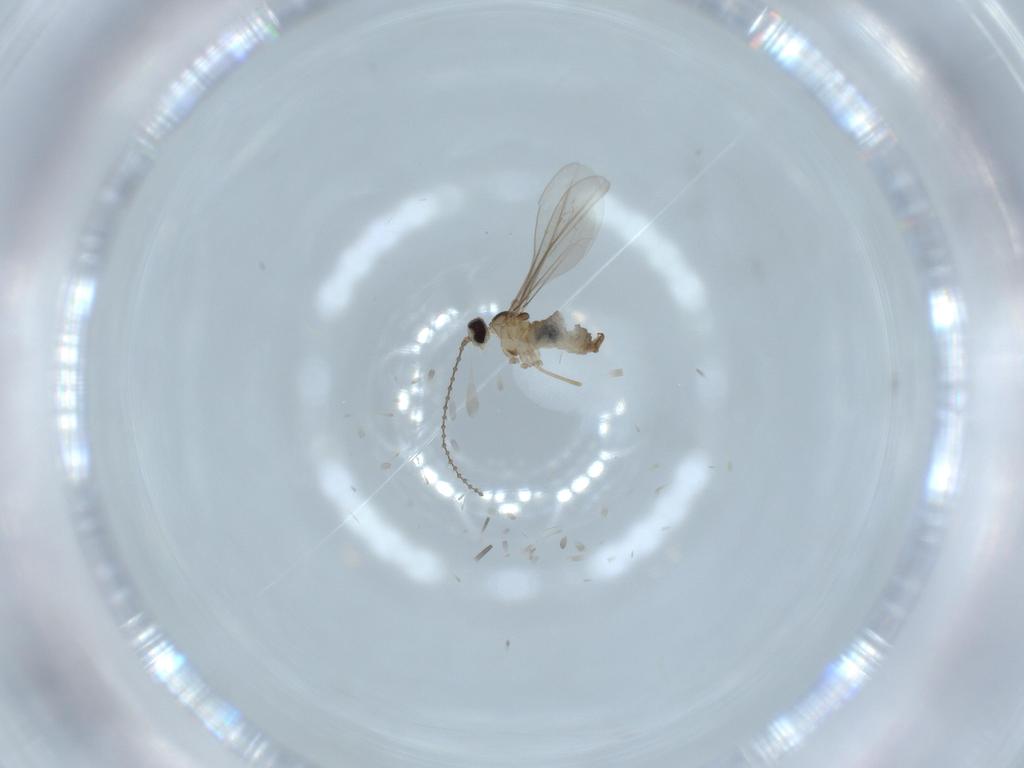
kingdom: Animalia
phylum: Arthropoda
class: Insecta
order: Diptera
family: Cecidomyiidae
